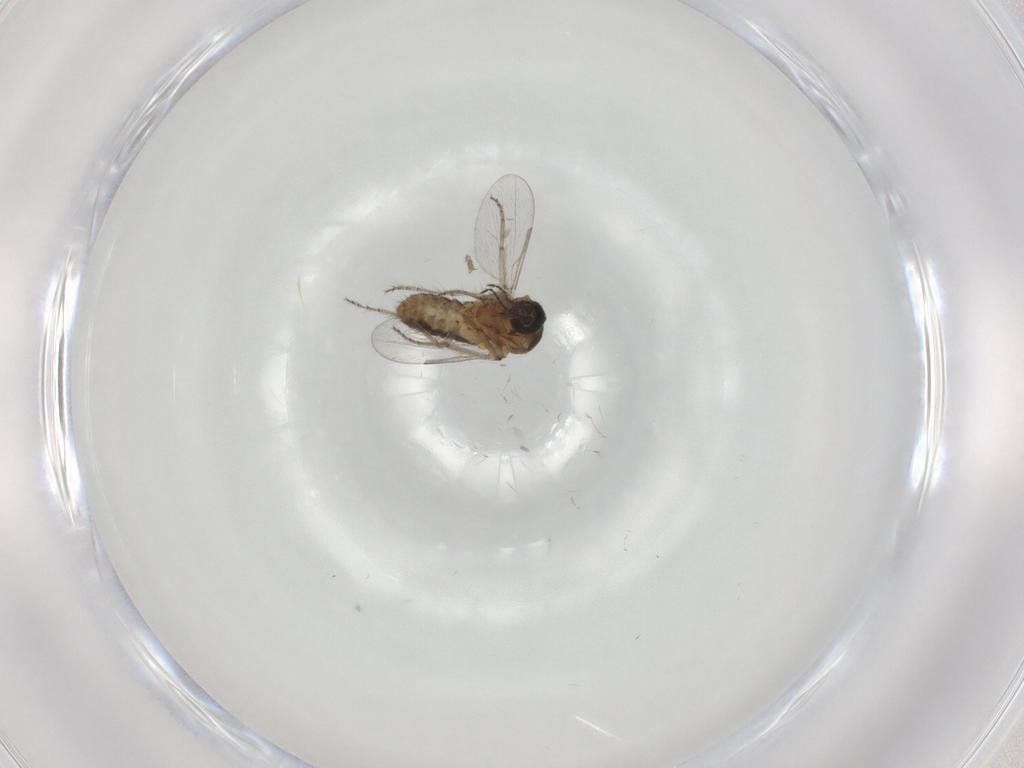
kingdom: Animalia
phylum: Arthropoda
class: Insecta
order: Diptera
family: Ceratopogonidae
